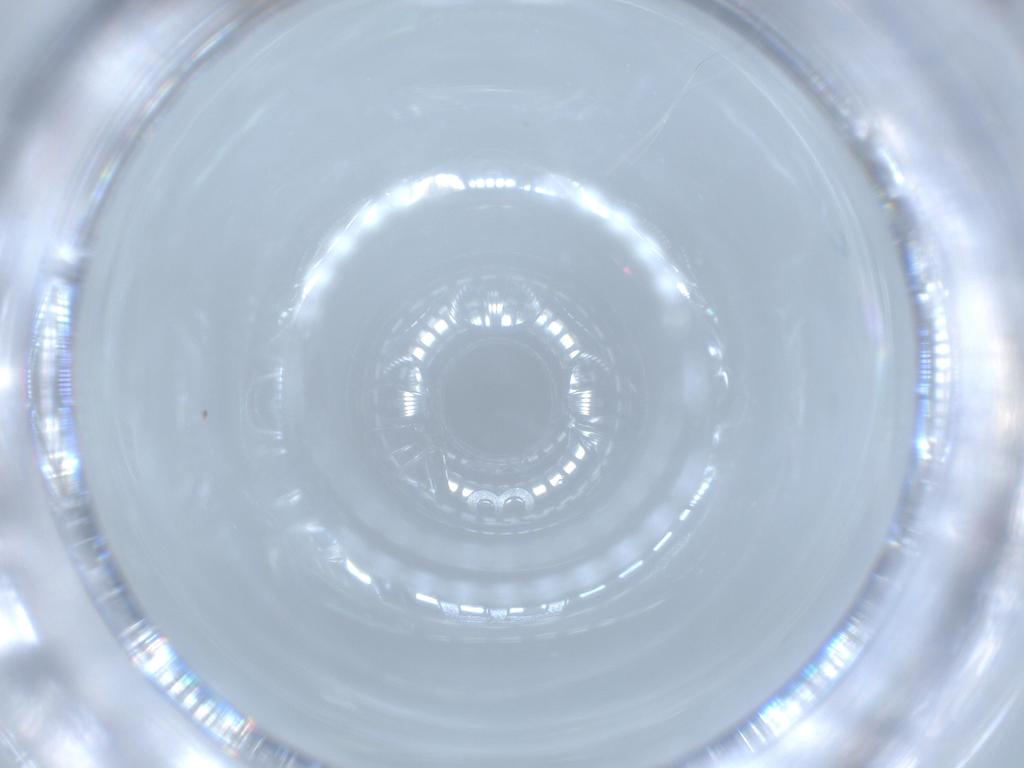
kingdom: Animalia
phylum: Arthropoda
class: Insecta
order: Diptera
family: Cecidomyiidae
